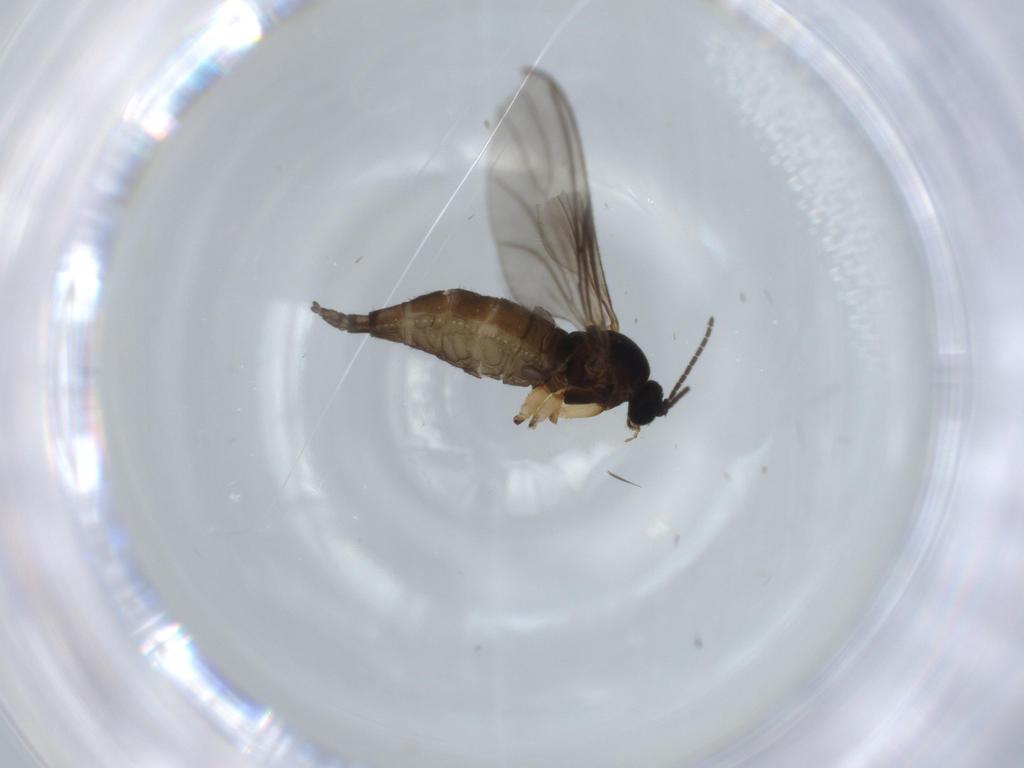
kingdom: Animalia
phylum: Arthropoda
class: Insecta
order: Diptera
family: Sciaridae
